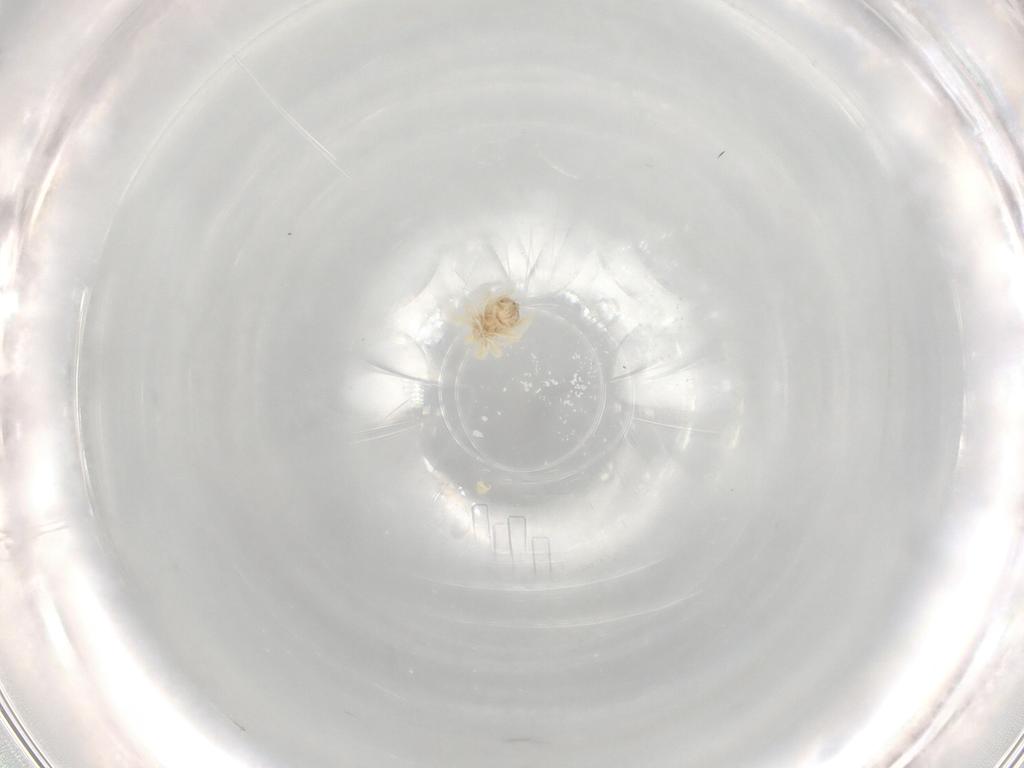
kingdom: Animalia
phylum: Arthropoda
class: Arachnida
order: Trombidiformes
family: Anystidae
